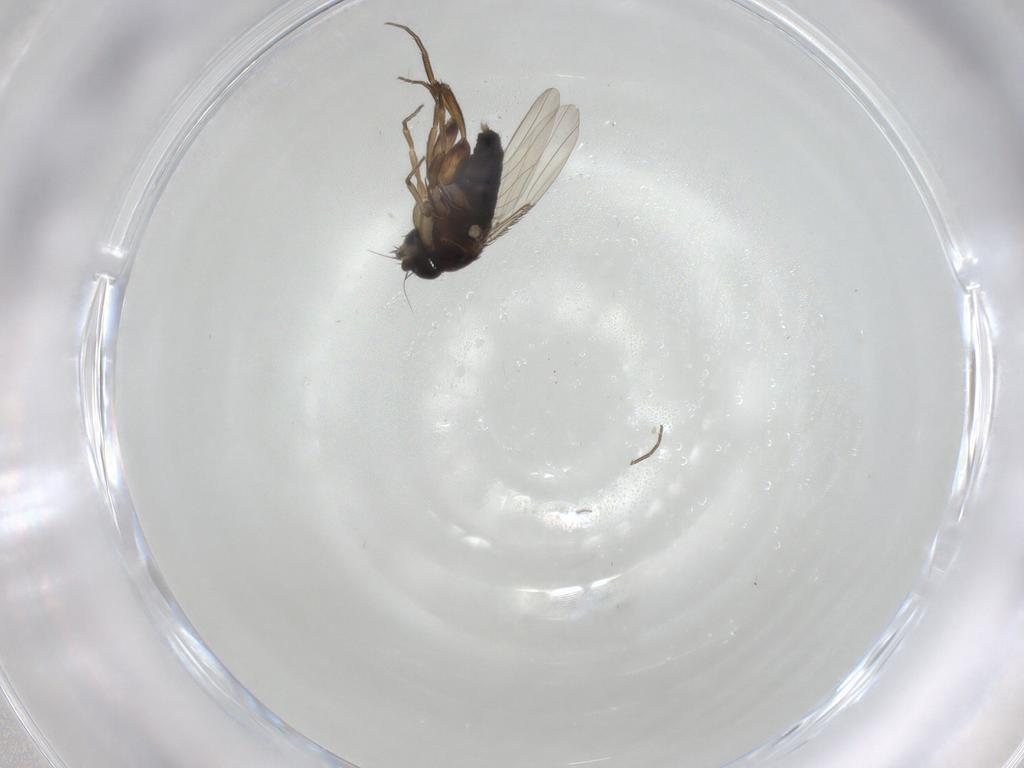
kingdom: Animalia
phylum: Arthropoda
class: Insecta
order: Diptera
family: Phoridae
